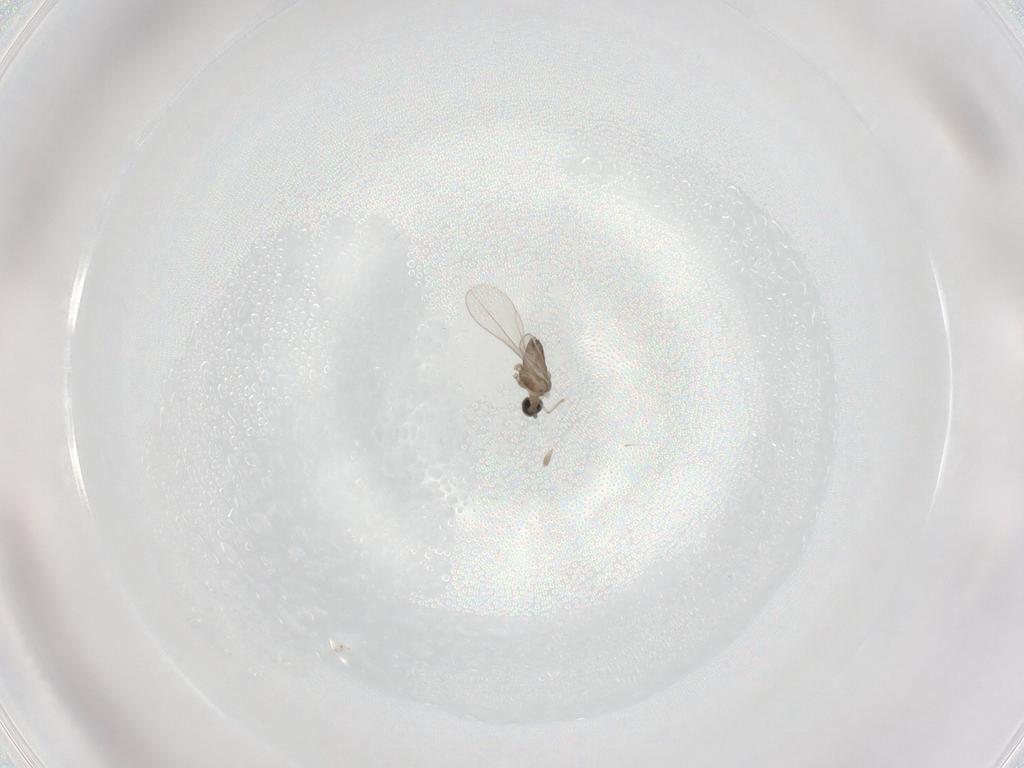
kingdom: Animalia
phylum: Arthropoda
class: Insecta
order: Diptera
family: Cecidomyiidae
